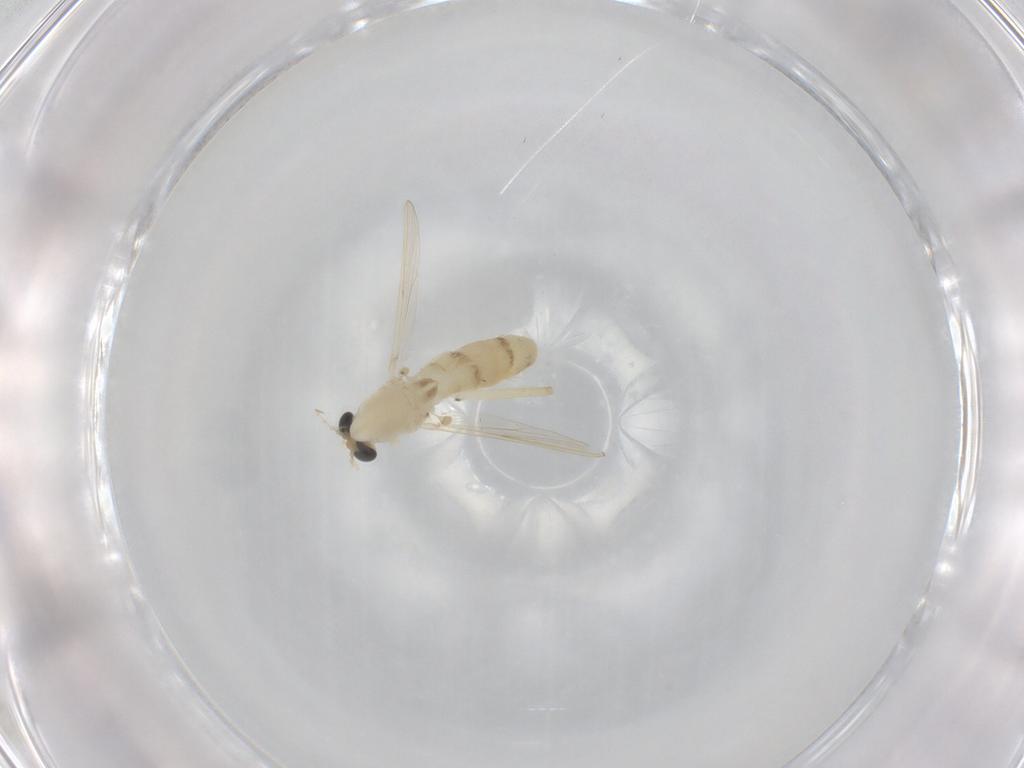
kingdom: Animalia
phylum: Arthropoda
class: Insecta
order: Diptera
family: Chironomidae
